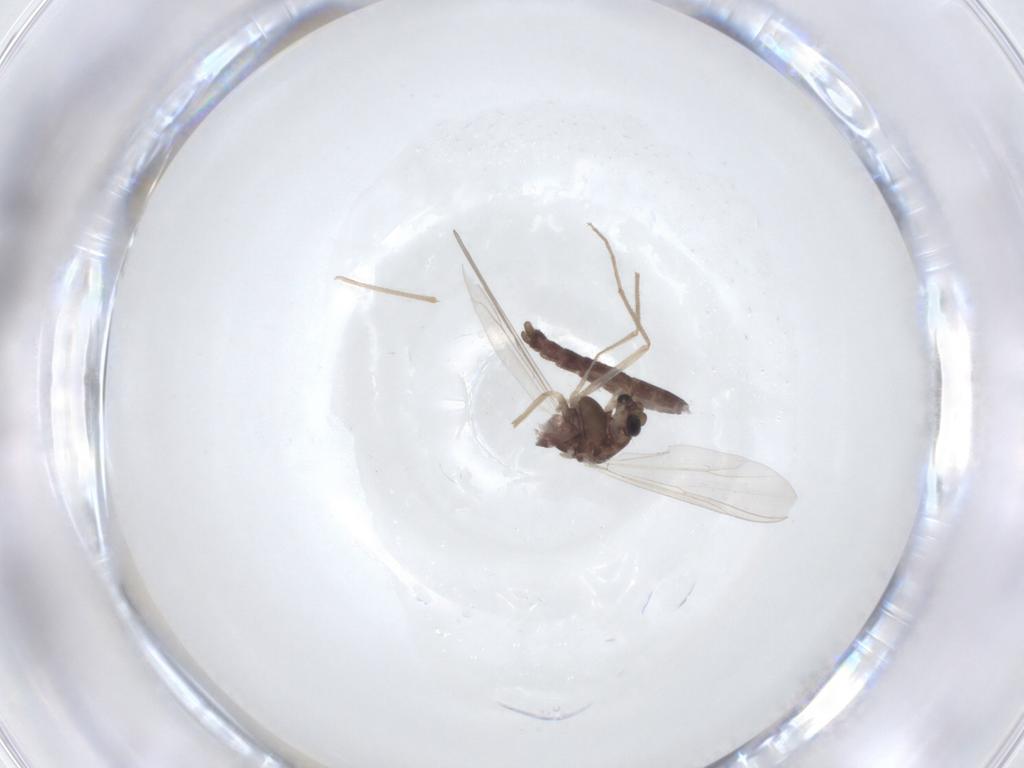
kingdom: Animalia
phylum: Arthropoda
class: Insecta
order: Diptera
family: Chironomidae
